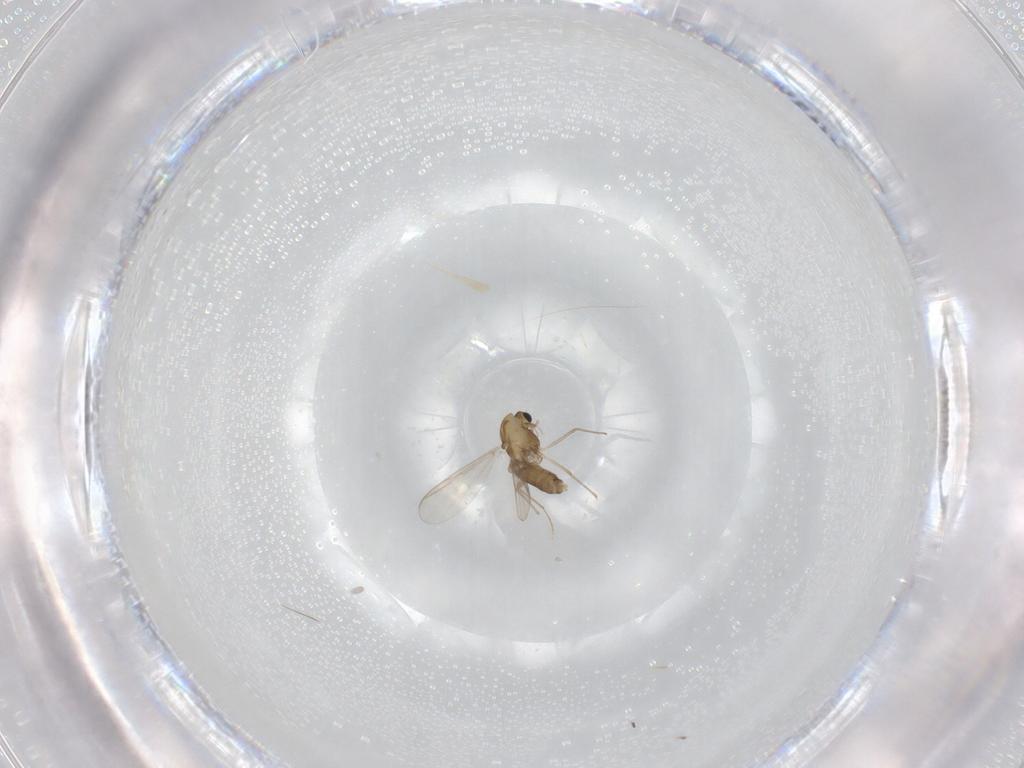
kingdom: Animalia
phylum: Arthropoda
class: Insecta
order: Diptera
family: Chironomidae
